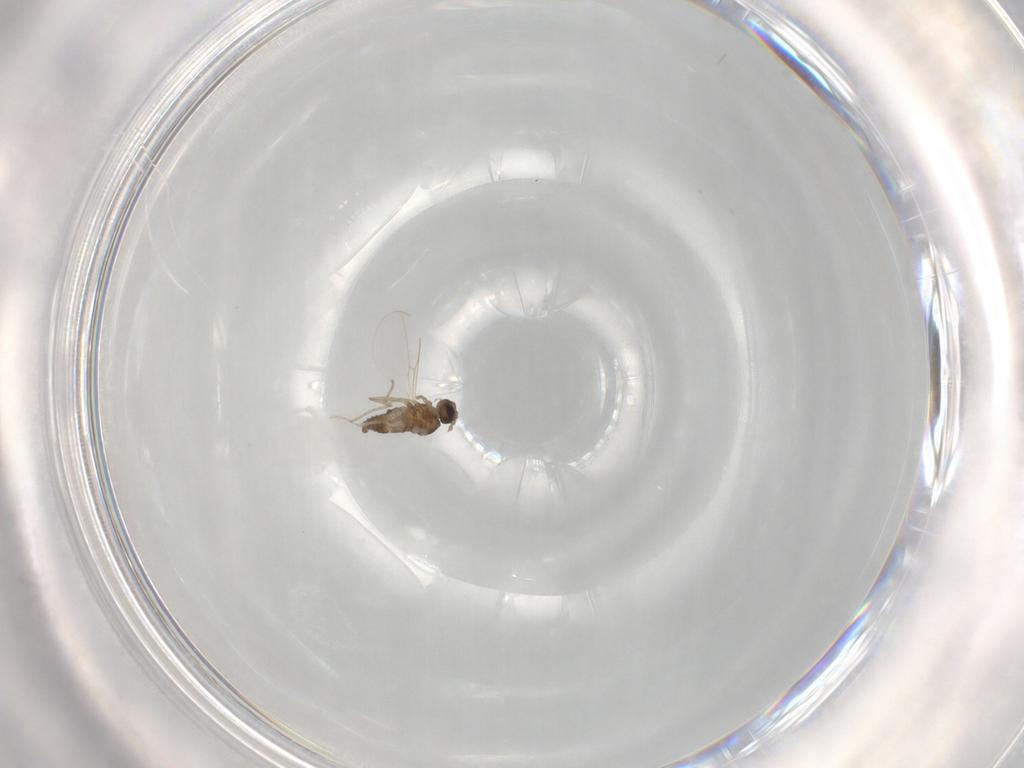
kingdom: Animalia
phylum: Arthropoda
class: Insecta
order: Diptera
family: Cecidomyiidae
